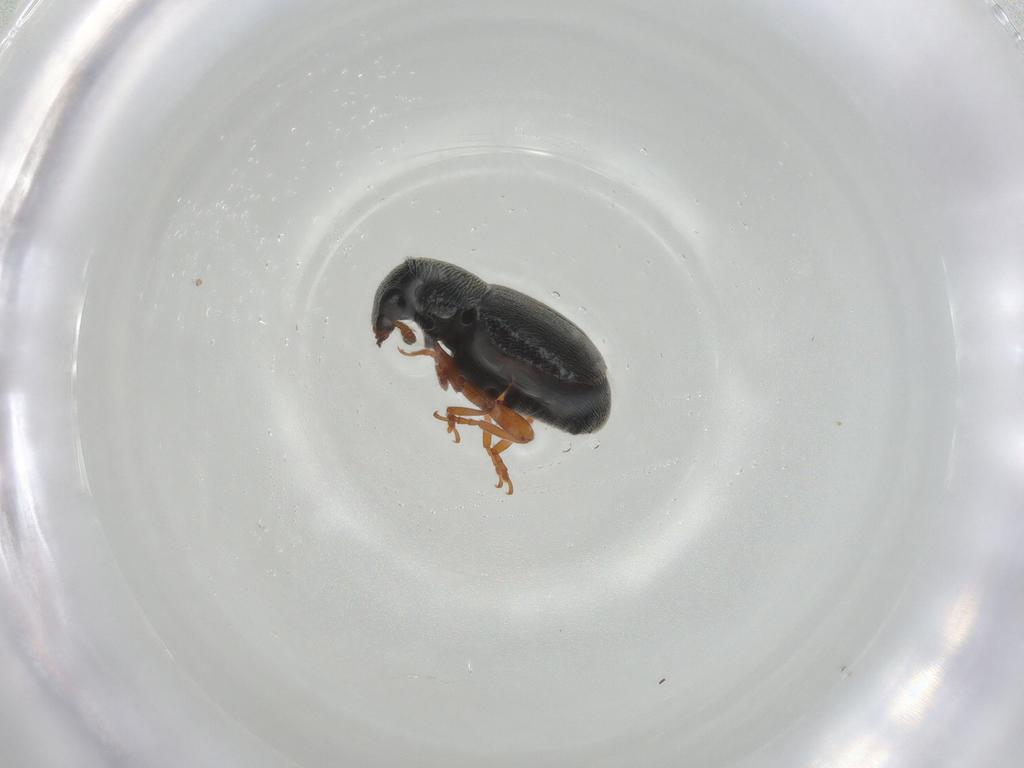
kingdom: Animalia
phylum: Arthropoda
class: Insecta
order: Coleoptera
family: Anthribidae
